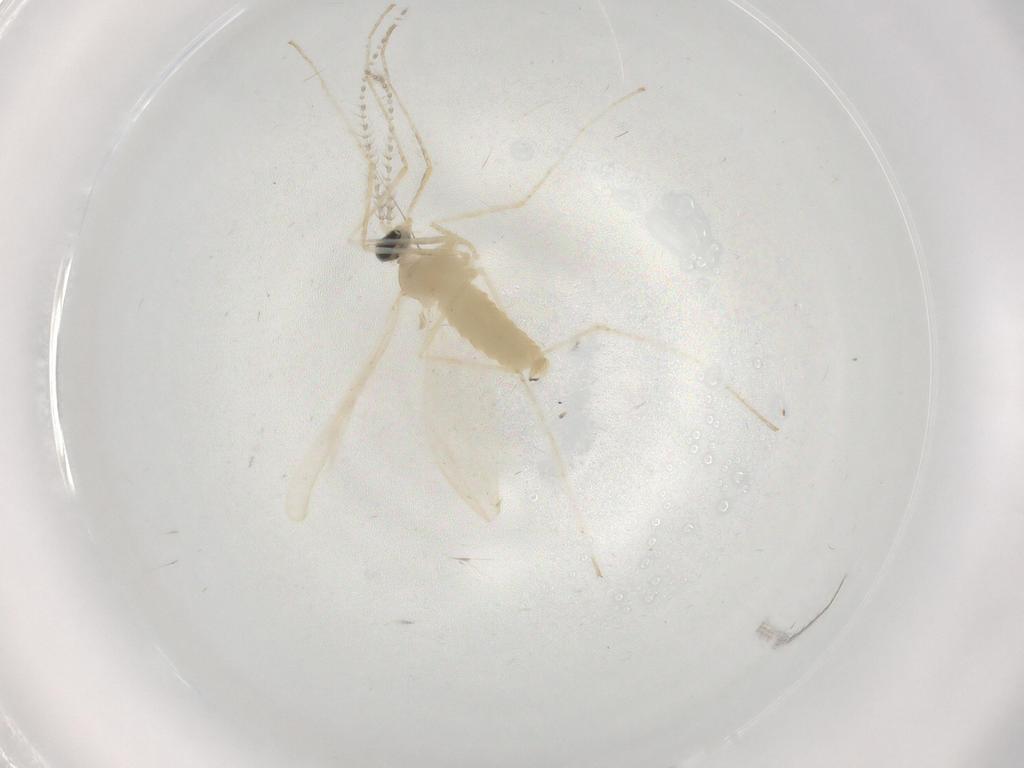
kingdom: Animalia
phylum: Arthropoda
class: Insecta
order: Diptera
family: Cecidomyiidae
